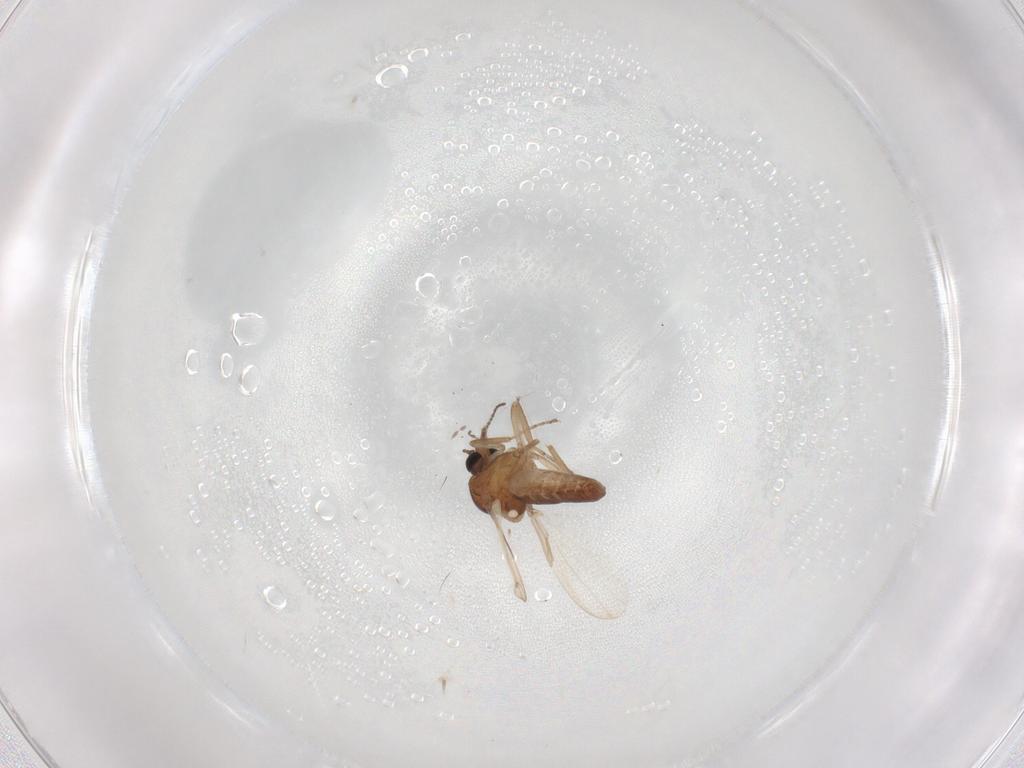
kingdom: Animalia
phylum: Arthropoda
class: Insecta
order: Diptera
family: Ceratopogonidae
